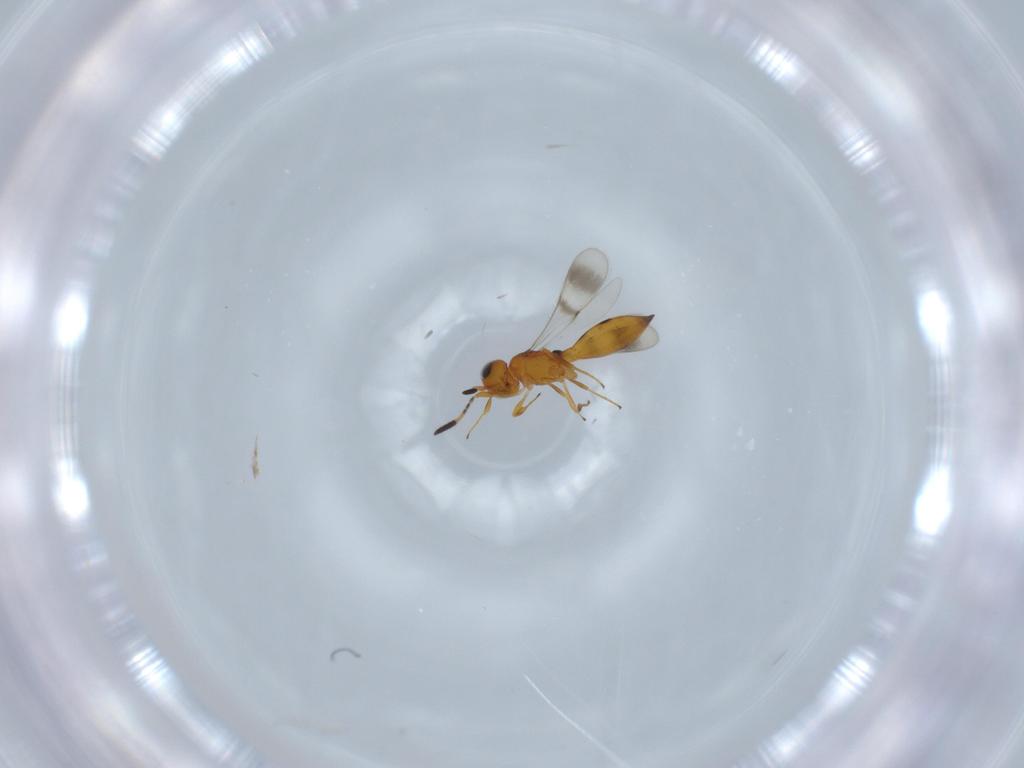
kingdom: Animalia
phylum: Arthropoda
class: Insecta
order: Hymenoptera
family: Scelionidae
